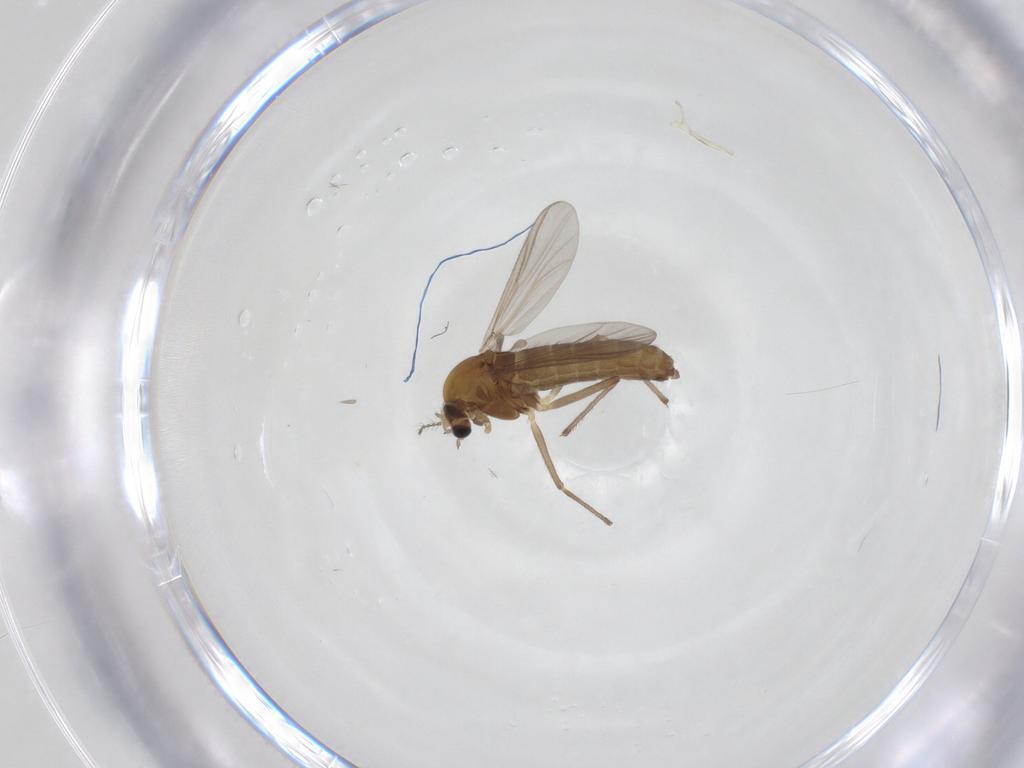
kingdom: Animalia
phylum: Arthropoda
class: Insecta
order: Diptera
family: Chironomidae
